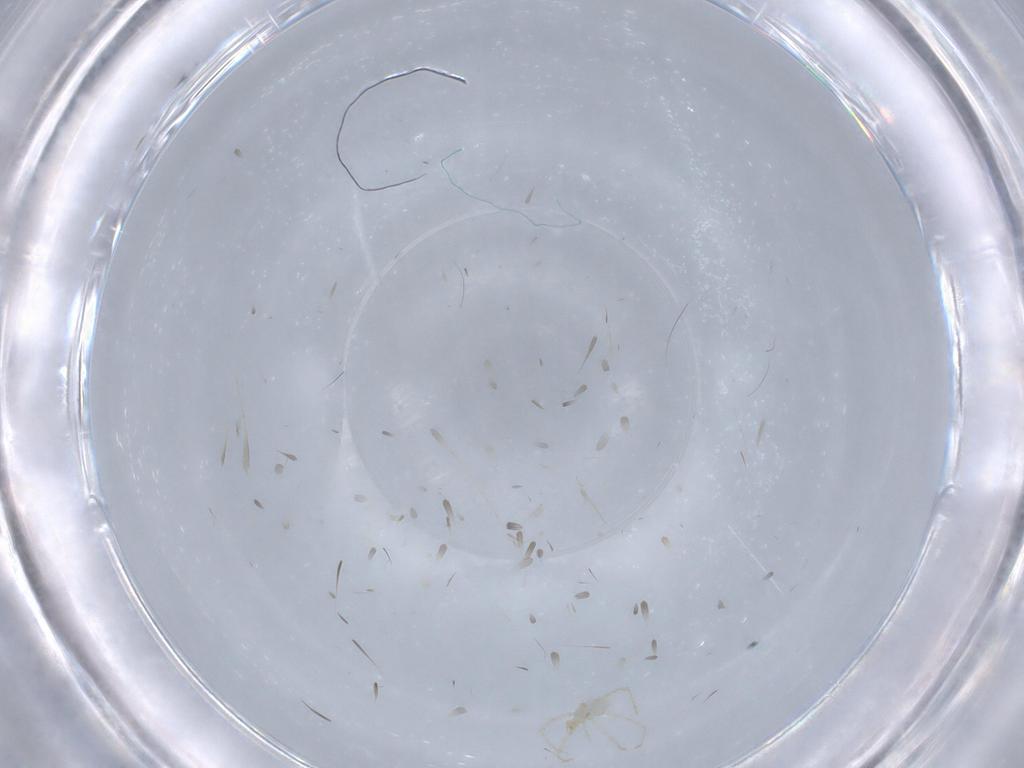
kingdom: Animalia
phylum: Arthropoda
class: Arachnida
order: Trombidiformes
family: Erythraeidae
